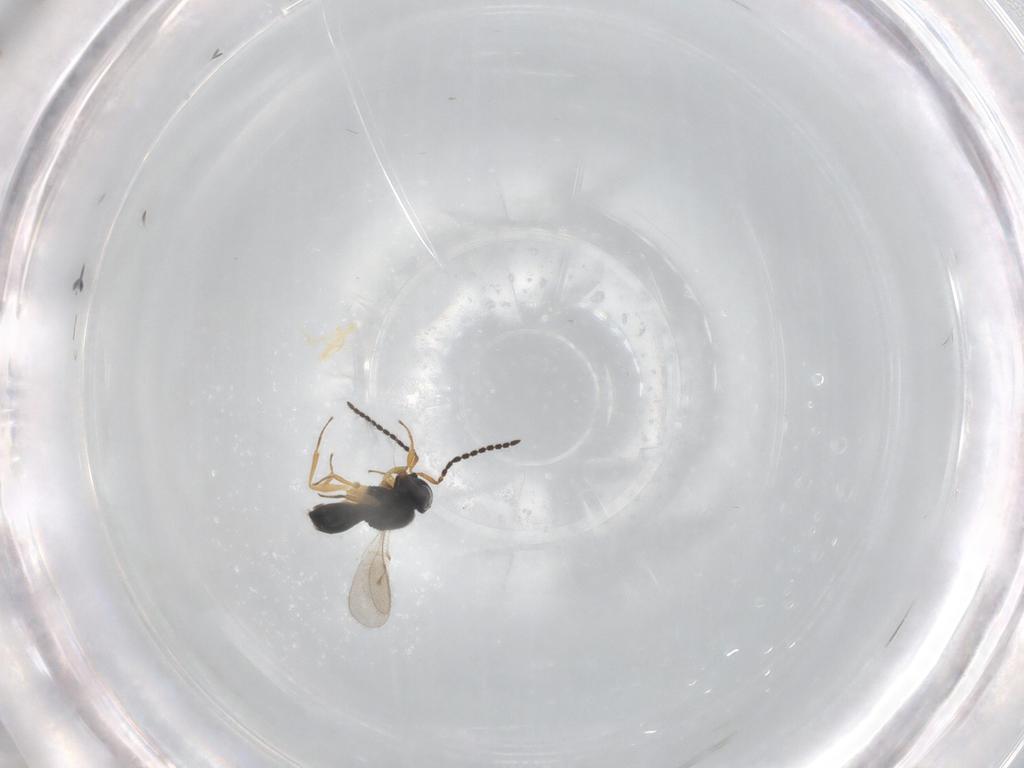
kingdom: Animalia
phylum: Arthropoda
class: Insecta
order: Hymenoptera
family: Scelionidae
